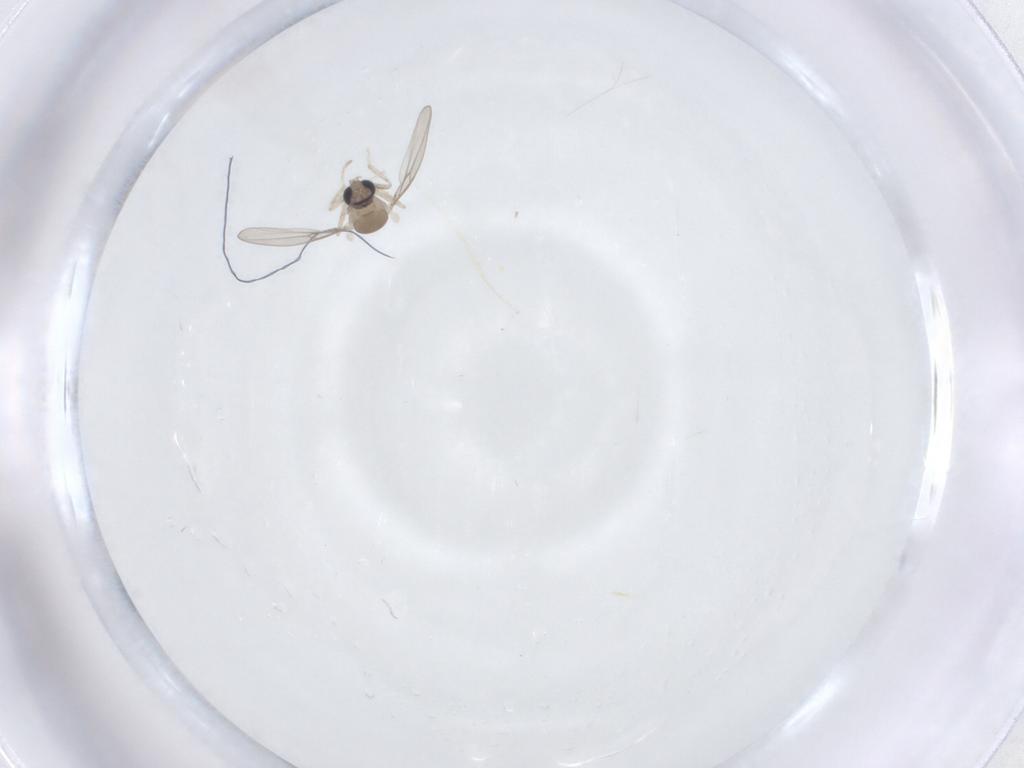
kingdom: Animalia
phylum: Arthropoda
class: Insecta
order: Diptera
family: Cecidomyiidae
